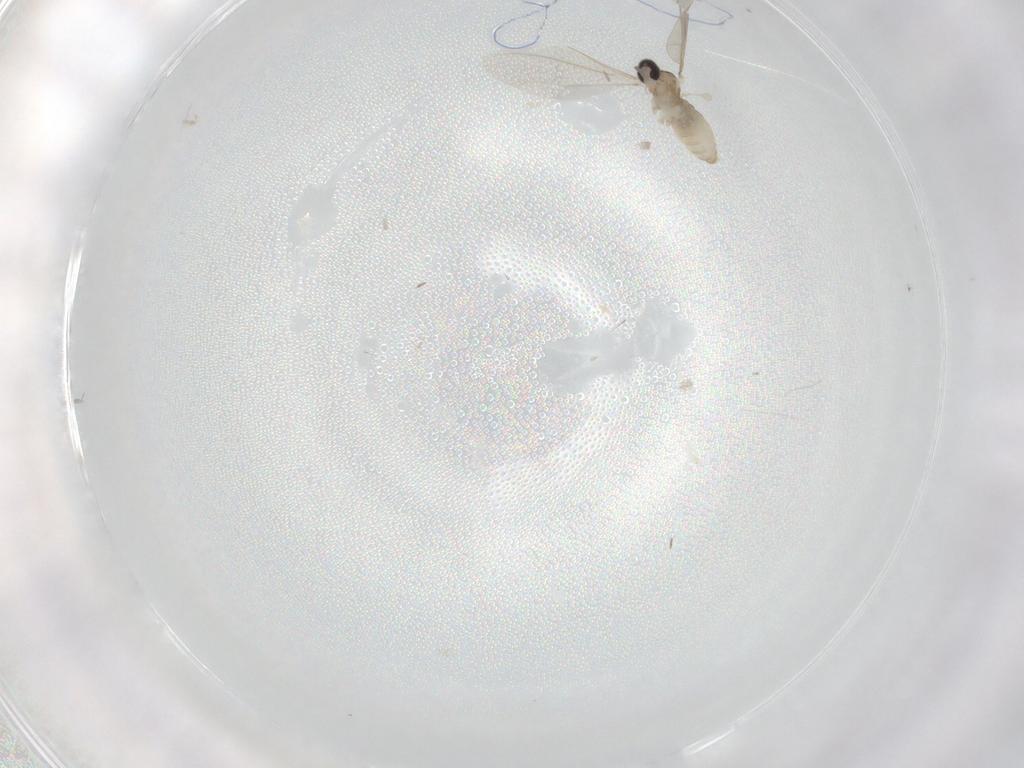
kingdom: Animalia
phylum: Arthropoda
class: Insecta
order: Diptera
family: Cecidomyiidae
